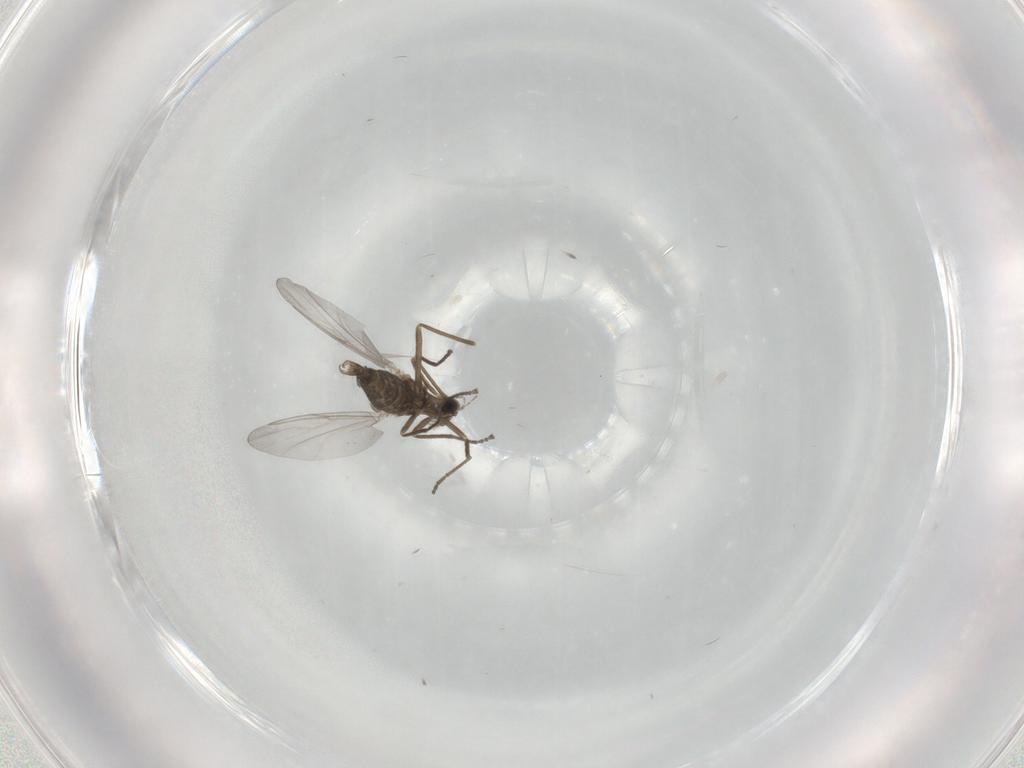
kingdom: Animalia
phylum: Arthropoda
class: Insecta
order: Diptera
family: Cecidomyiidae
